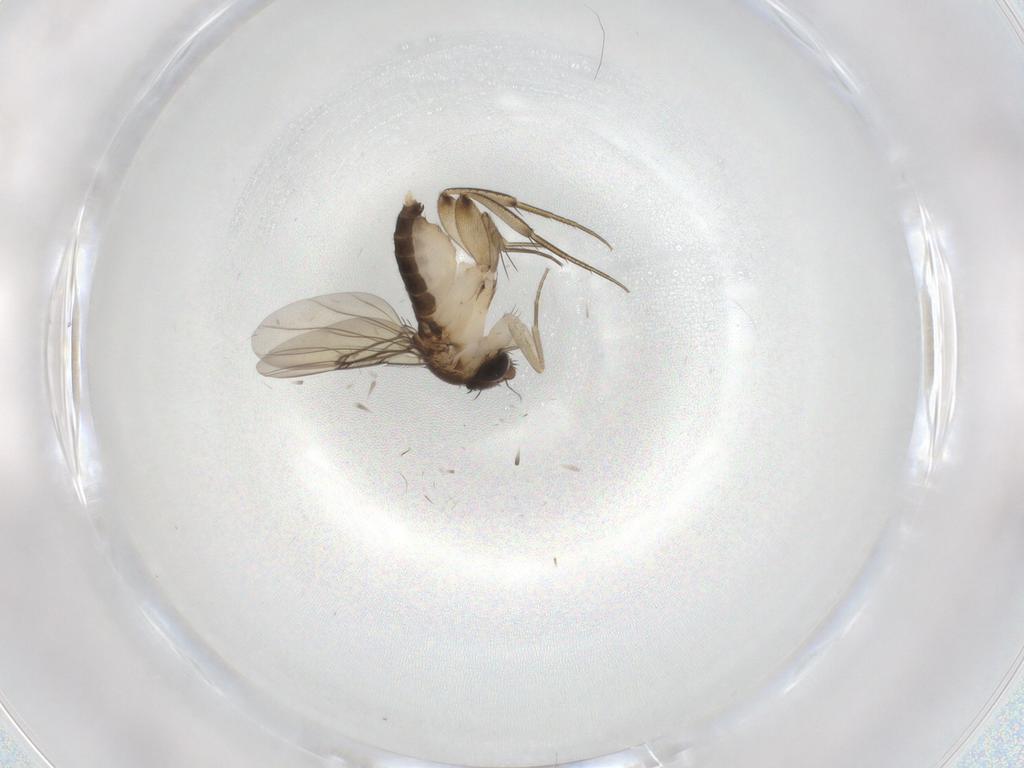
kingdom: Animalia
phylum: Arthropoda
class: Insecta
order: Diptera
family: Phoridae
